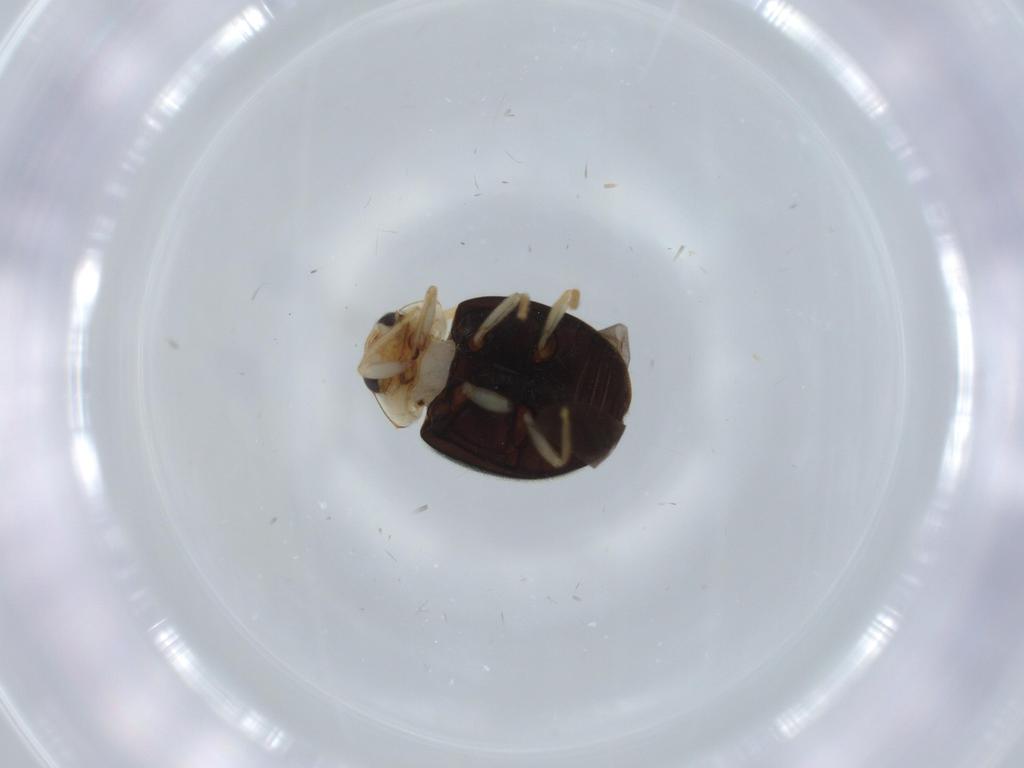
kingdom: Animalia
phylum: Arthropoda
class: Insecta
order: Coleoptera
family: Coccinellidae
